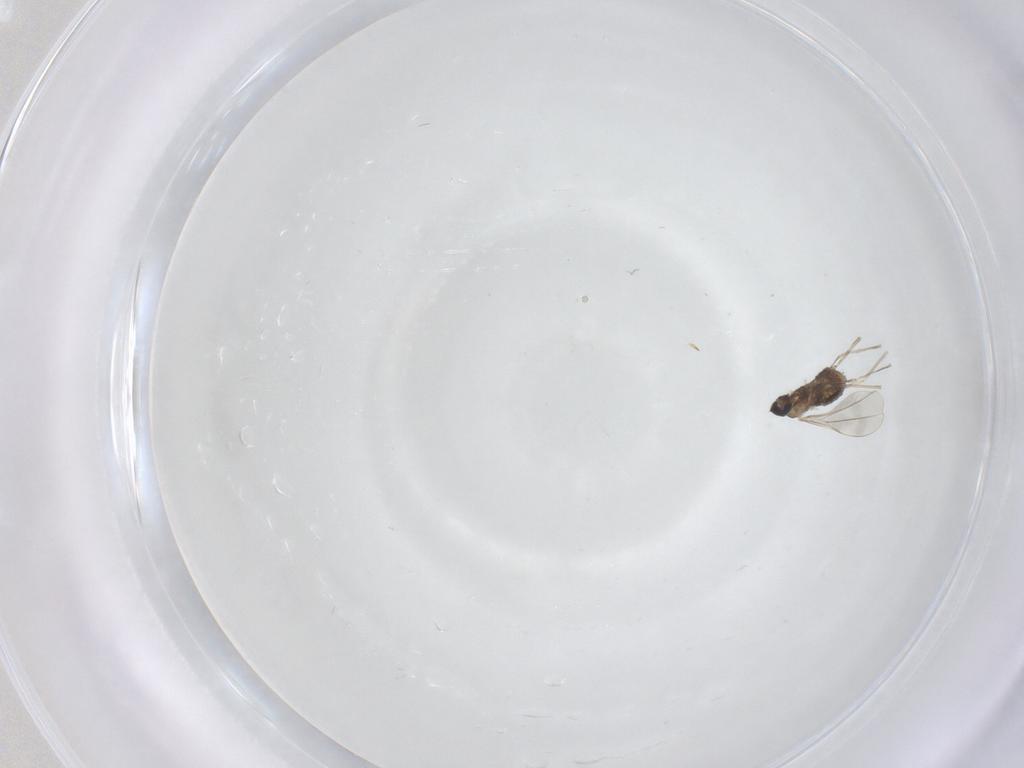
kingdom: Animalia
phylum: Arthropoda
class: Insecta
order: Diptera
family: Cecidomyiidae
